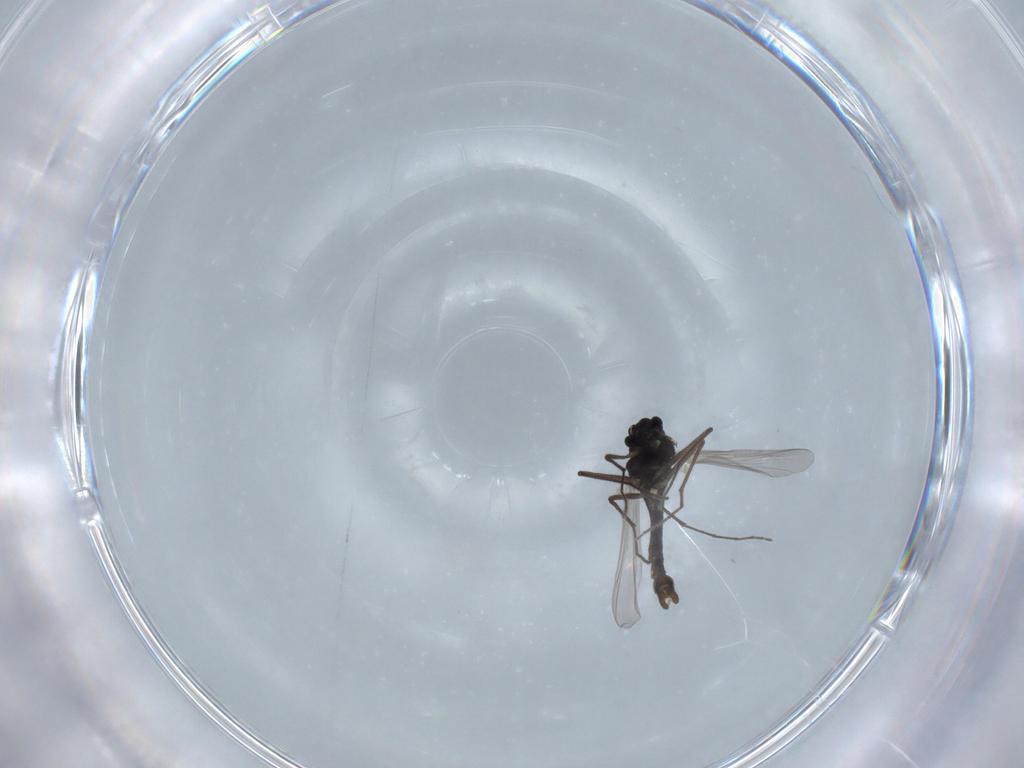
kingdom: Animalia
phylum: Arthropoda
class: Insecta
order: Diptera
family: Chironomidae
